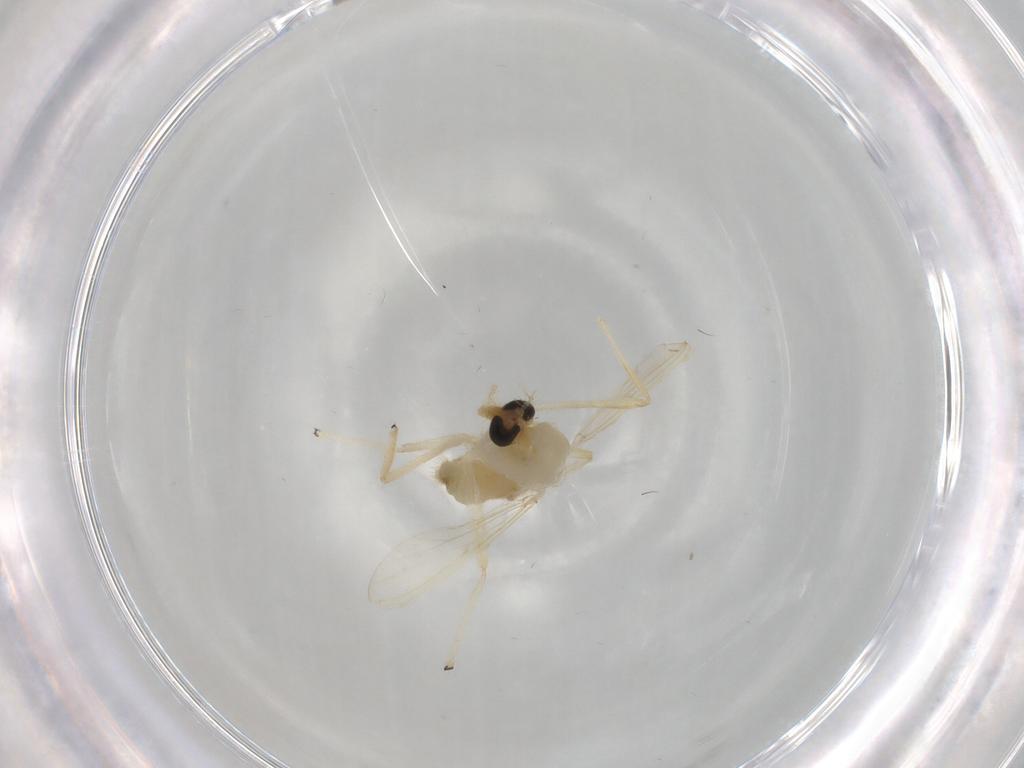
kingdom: Animalia
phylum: Arthropoda
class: Insecta
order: Diptera
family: Chironomidae
